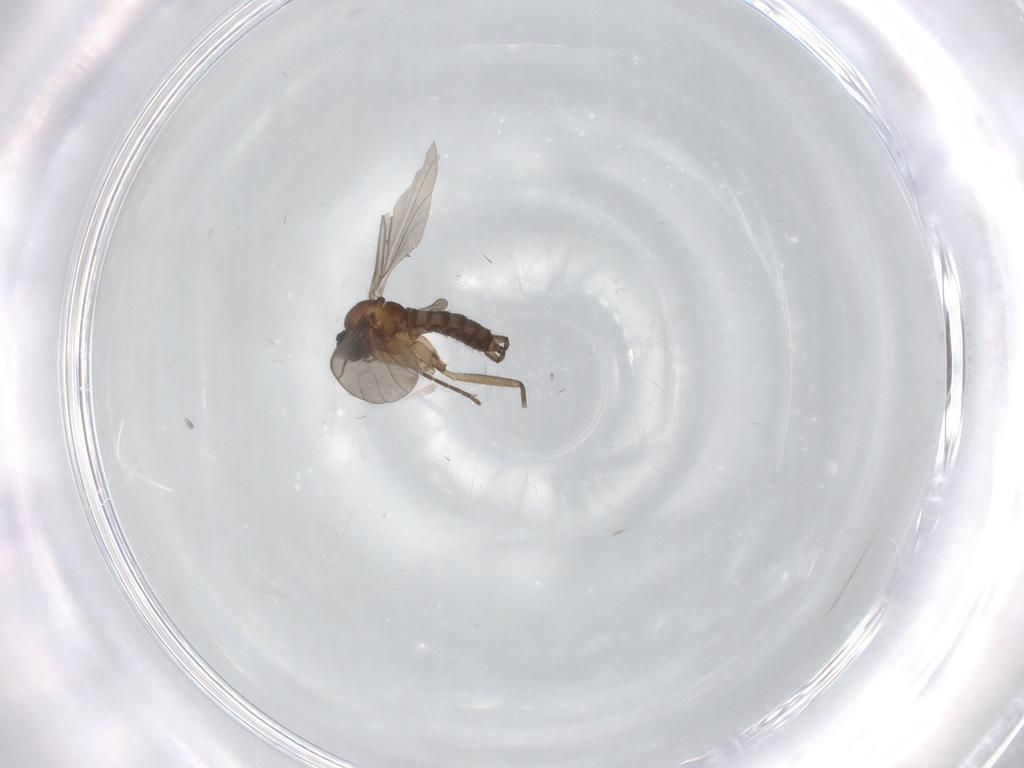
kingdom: Animalia
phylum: Arthropoda
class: Insecta
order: Diptera
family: Sciaridae
